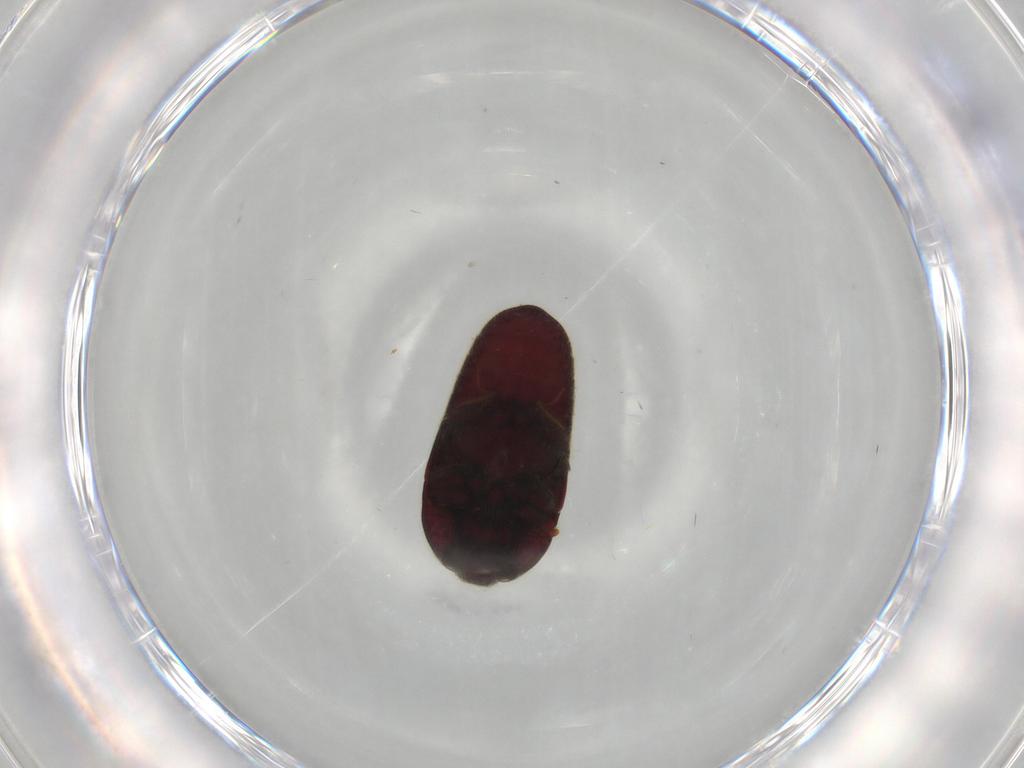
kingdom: Animalia
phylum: Arthropoda
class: Insecta
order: Coleoptera
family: Throscidae
